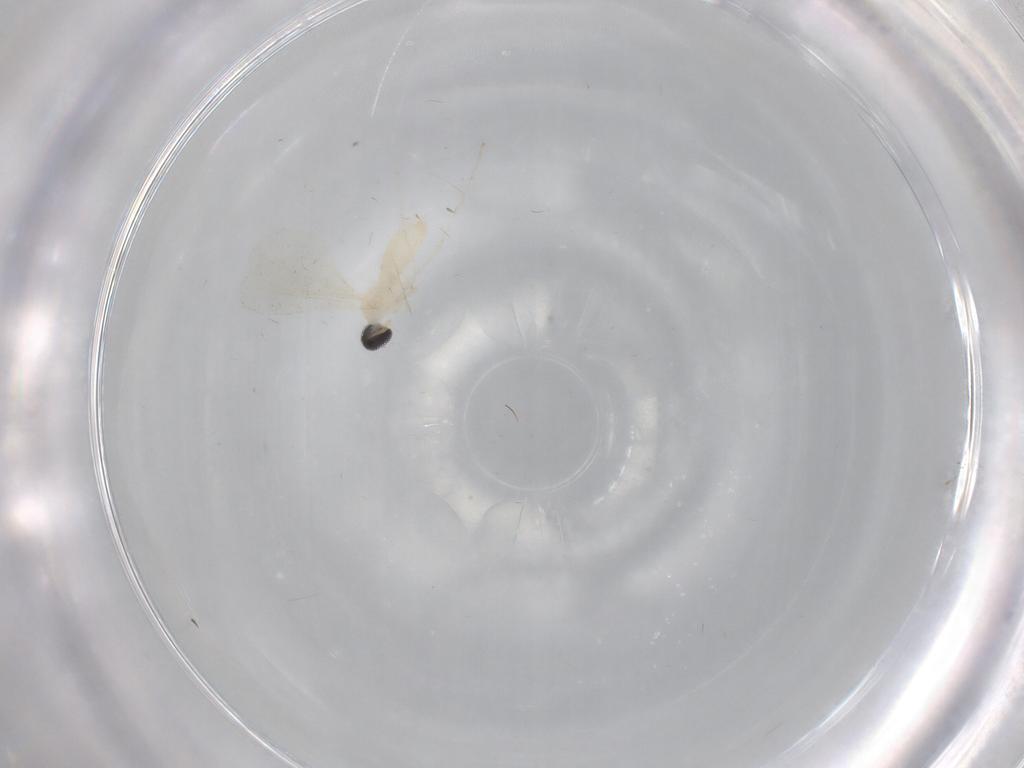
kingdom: Animalia
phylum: Arthropoda
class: Insecta
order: Diptera
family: Cecidomyiidae
